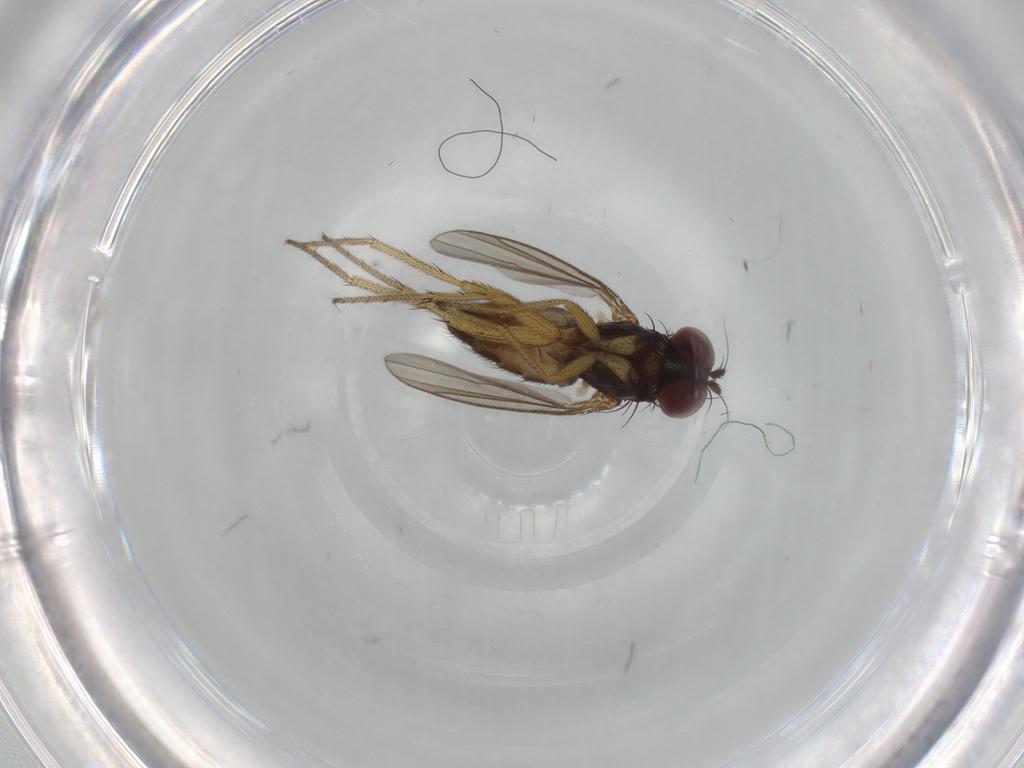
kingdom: Animalia
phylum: Arthropoda
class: Insecta
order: Diptera
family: Dolichopodidae
